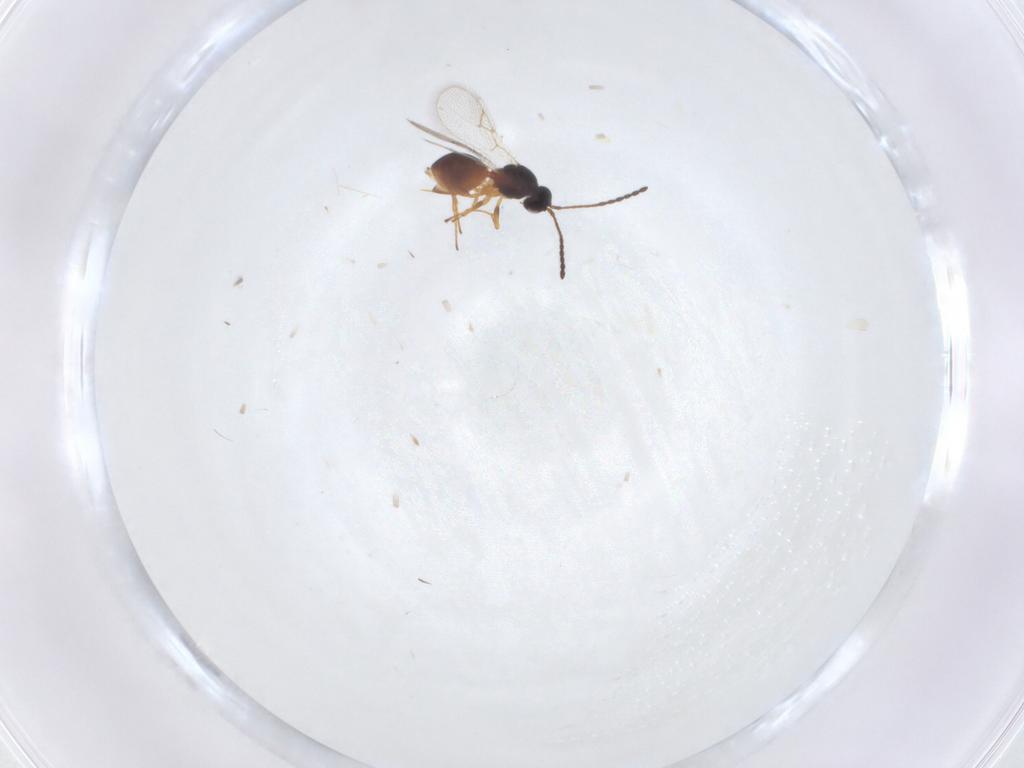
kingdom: Animalia
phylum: Arthropoda
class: Insecta
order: Hymenoptera
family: Figitidae
